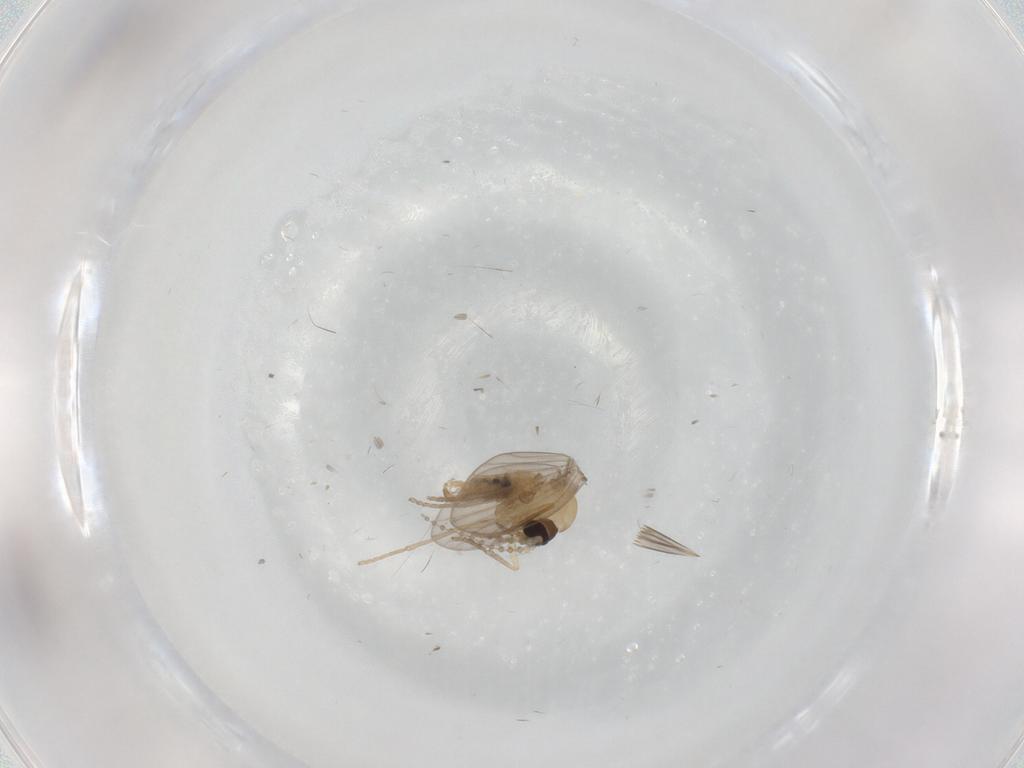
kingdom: Animalia
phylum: Arthropoda
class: Insecta
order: Diptera
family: Psychodidae
